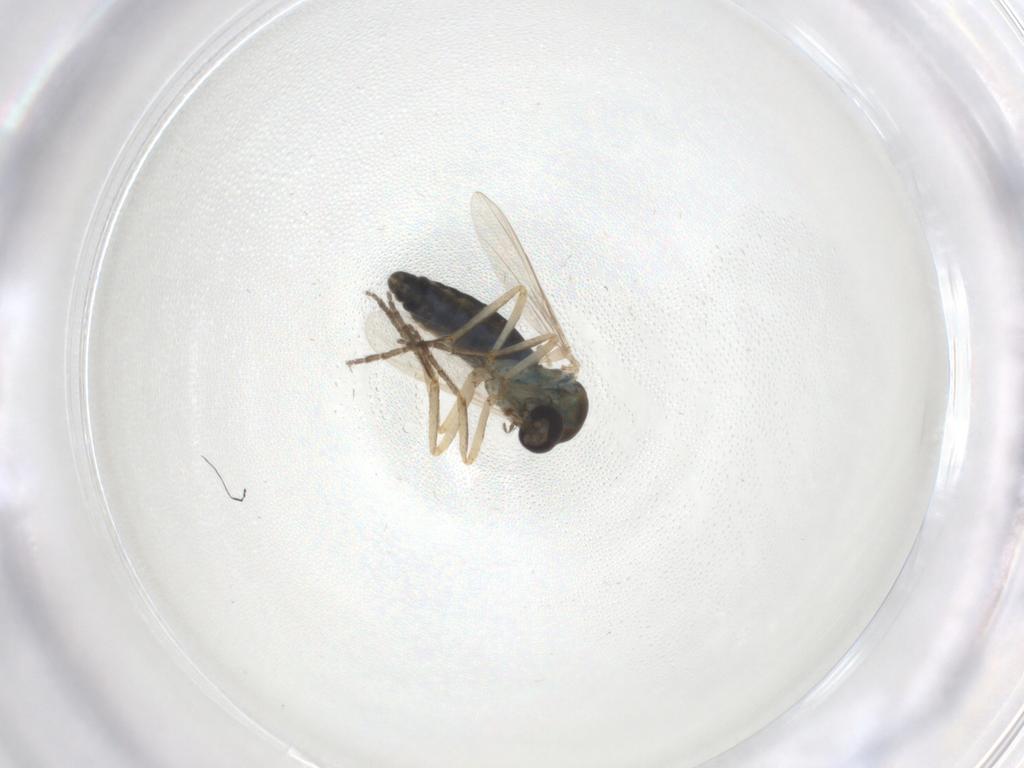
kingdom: Animalia
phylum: Arthropoda
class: Insecta
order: Diptera
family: Ceratopogonidae
